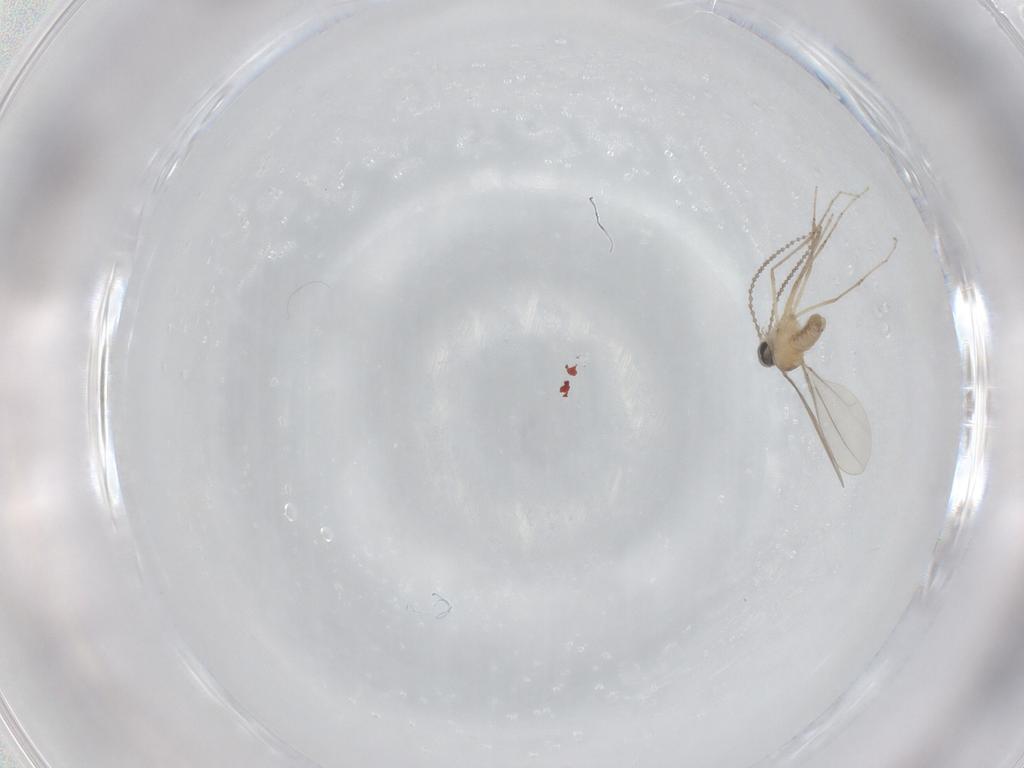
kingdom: Animalia
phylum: Arthropoda
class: Insecta
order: Diptera
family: Cecidomyiidae
